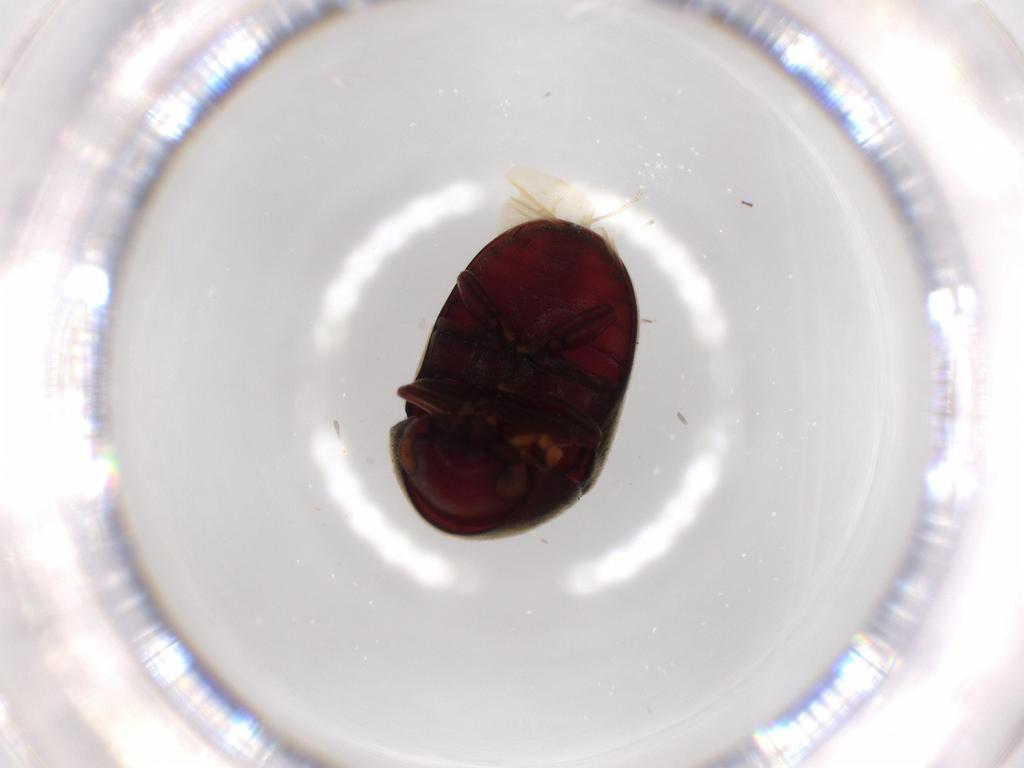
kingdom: Animalia
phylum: Arthropoda
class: Insecta
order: Coleoptera
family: Ptinidae
